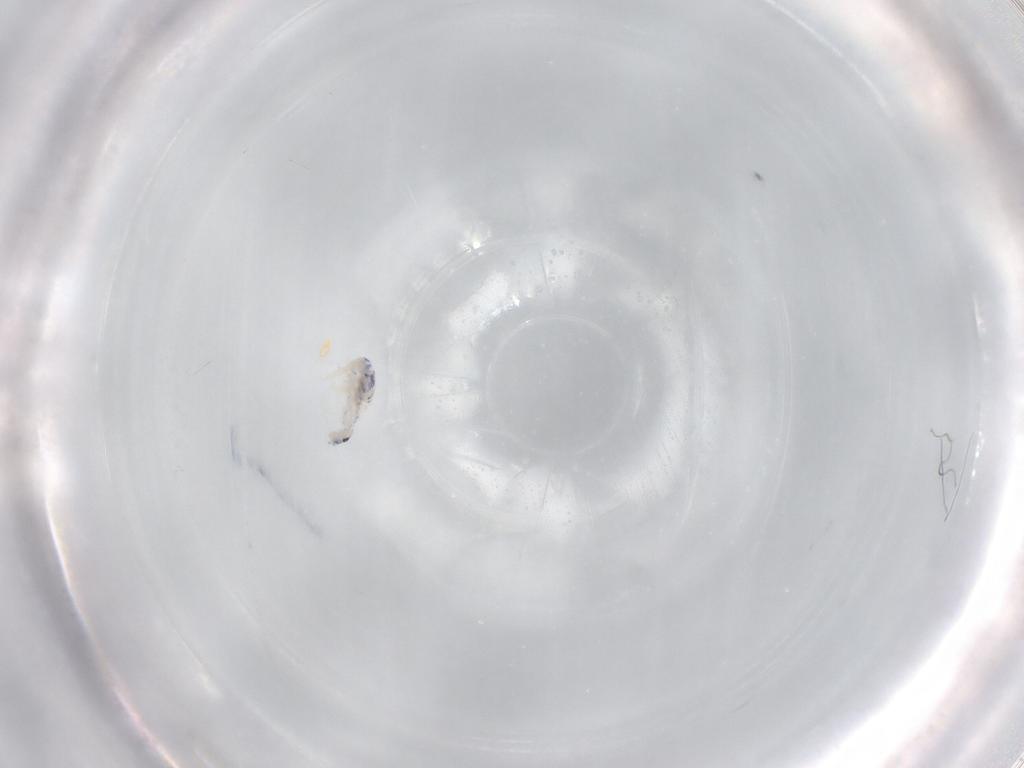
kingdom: Animalia
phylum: Arthropoda
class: Collembola
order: Entomobryomorpha
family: Entomobryidae
